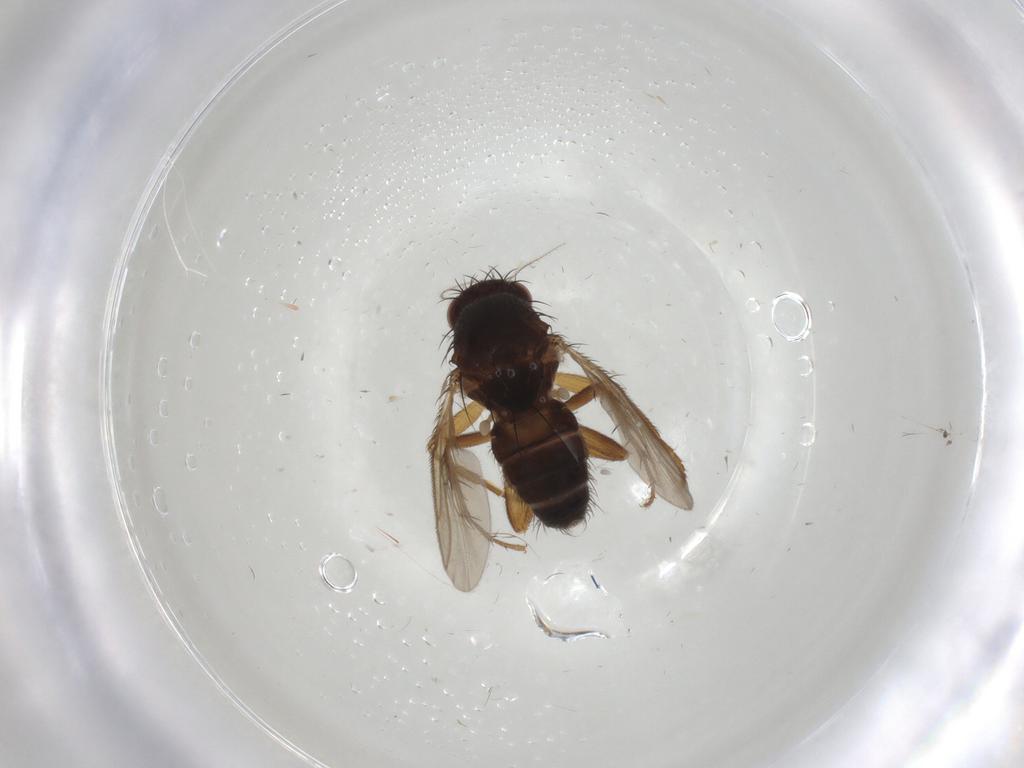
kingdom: Animalia
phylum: Arthropoda
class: Insecta
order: Diptera
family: Sphaeroceridae
